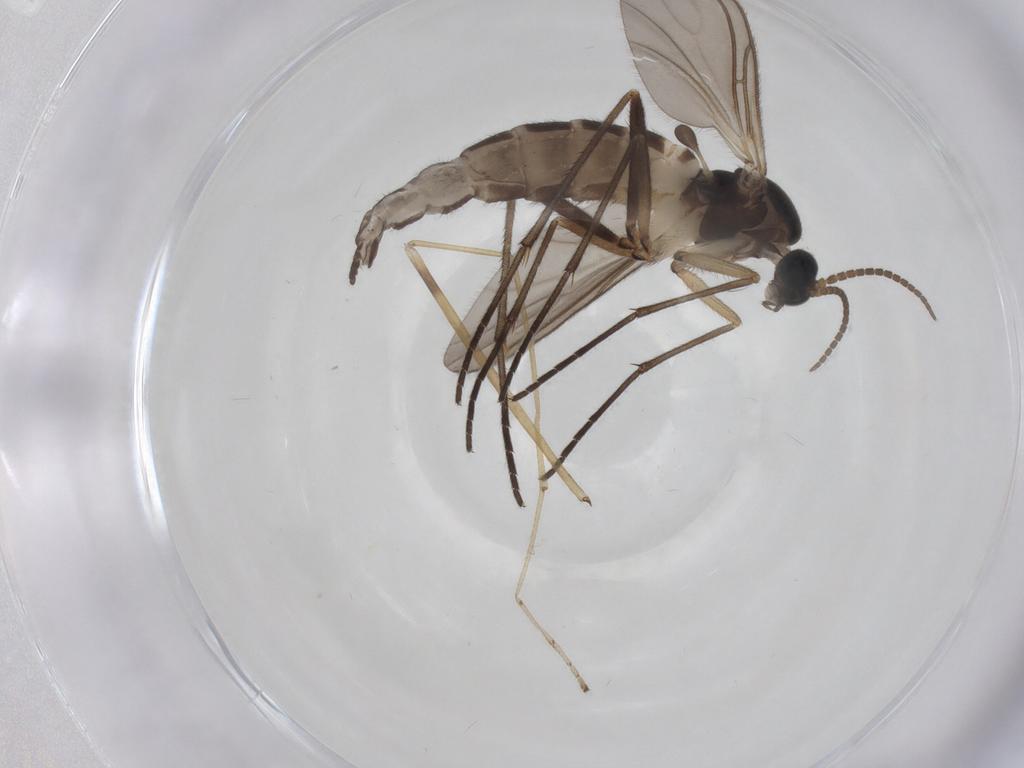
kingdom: Animalia
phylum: Arthropoda
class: Insecta
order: Diptera
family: Sciaridae
